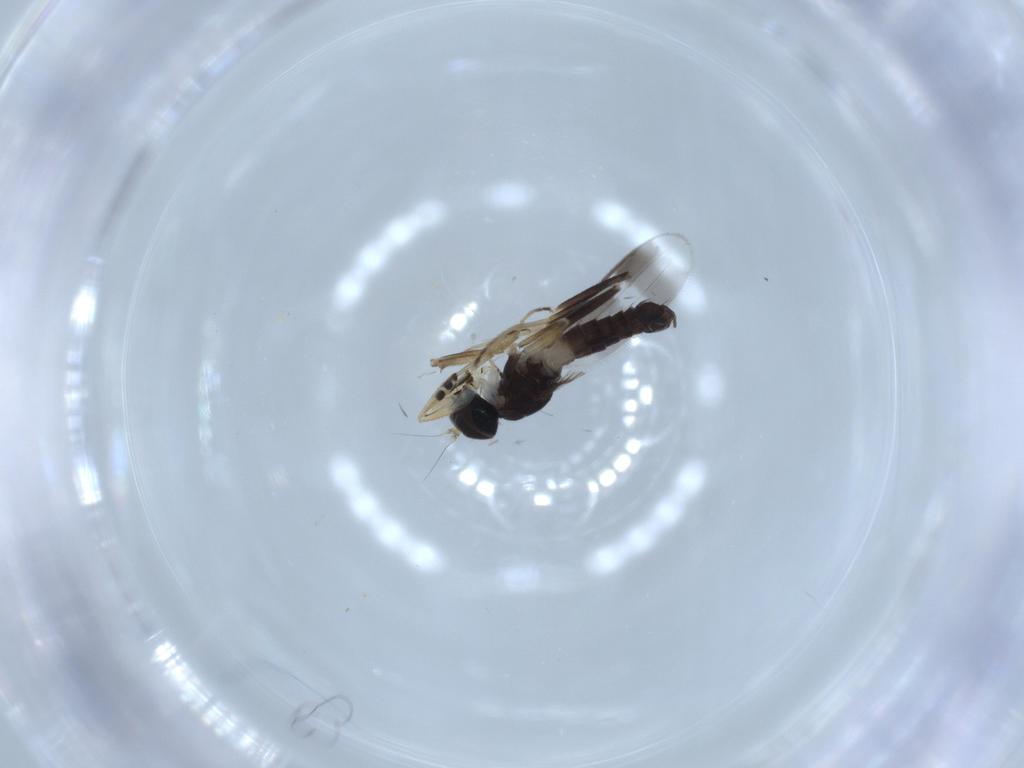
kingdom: Animalia
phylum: Arthropoda
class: Insecta
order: Diptera
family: Hybotidae
